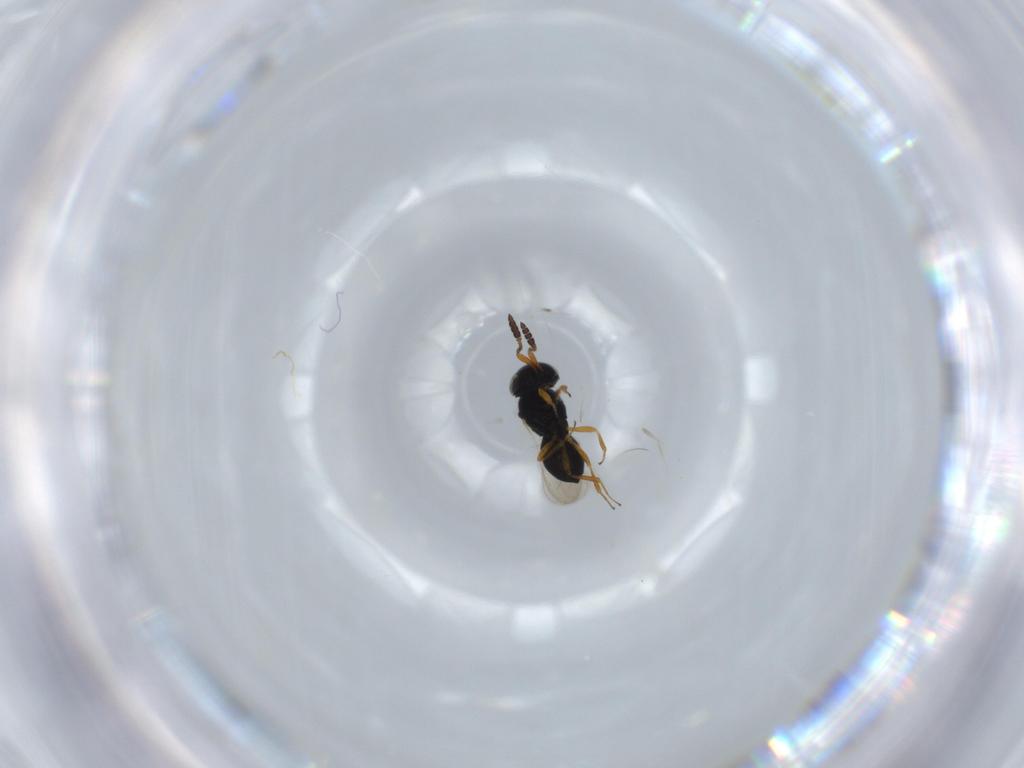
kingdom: Animalia
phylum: Arthropoda
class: Insecta
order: Hymenoptera
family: Scelionidae
